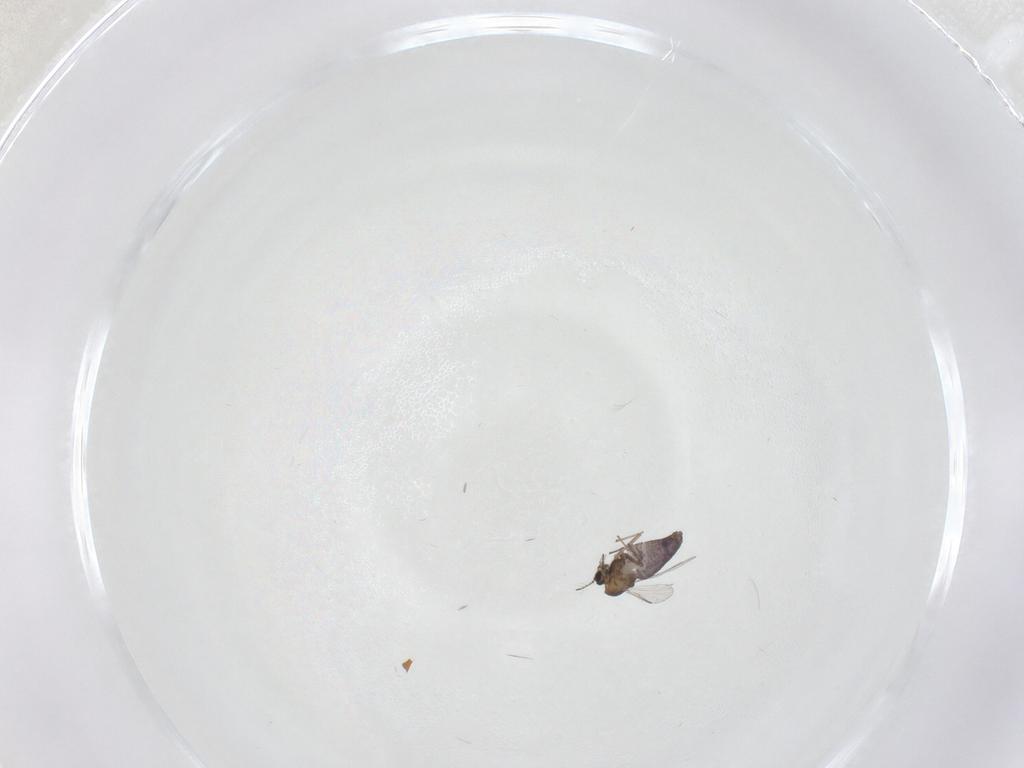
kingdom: Animalia
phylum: Arthropoda
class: Insecta
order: Diptera
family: Chironomidae
